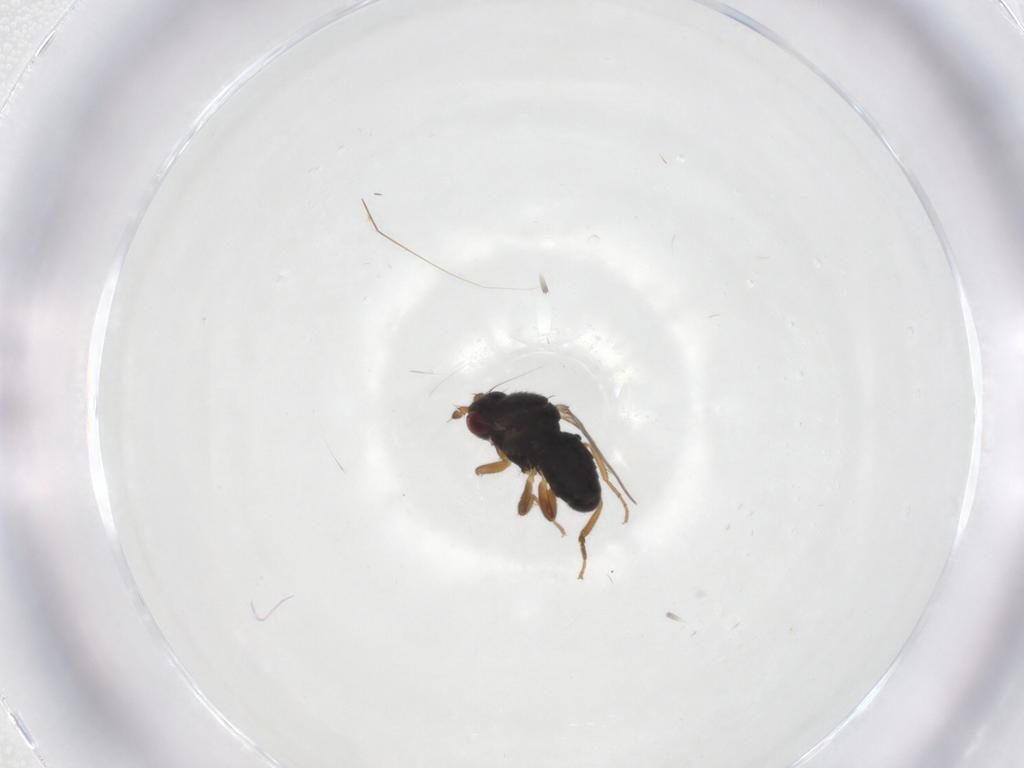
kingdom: Animalia
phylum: Arthropoda
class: Insecta
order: Diptera
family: Sphaeroceridae
